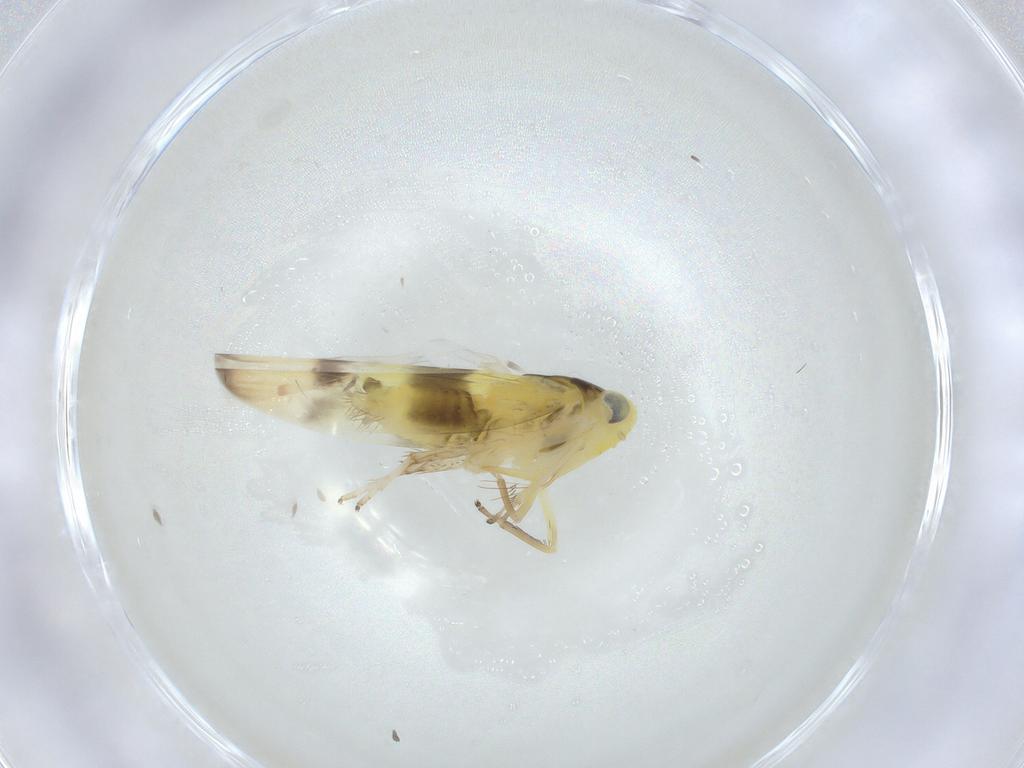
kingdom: Animalia
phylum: Arthropoda
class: Insecta
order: Hemiptera
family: Cicadellidae
